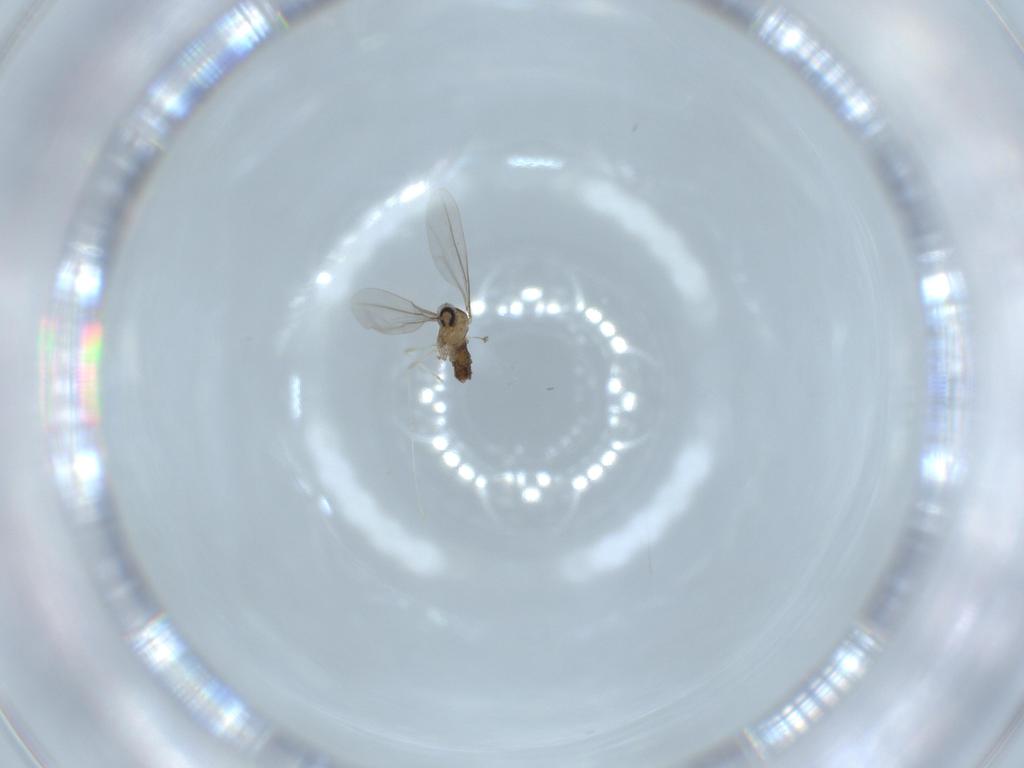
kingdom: Animalia
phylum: Arthropoda
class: Insecta
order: Diptera
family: Cecidomyiidae
